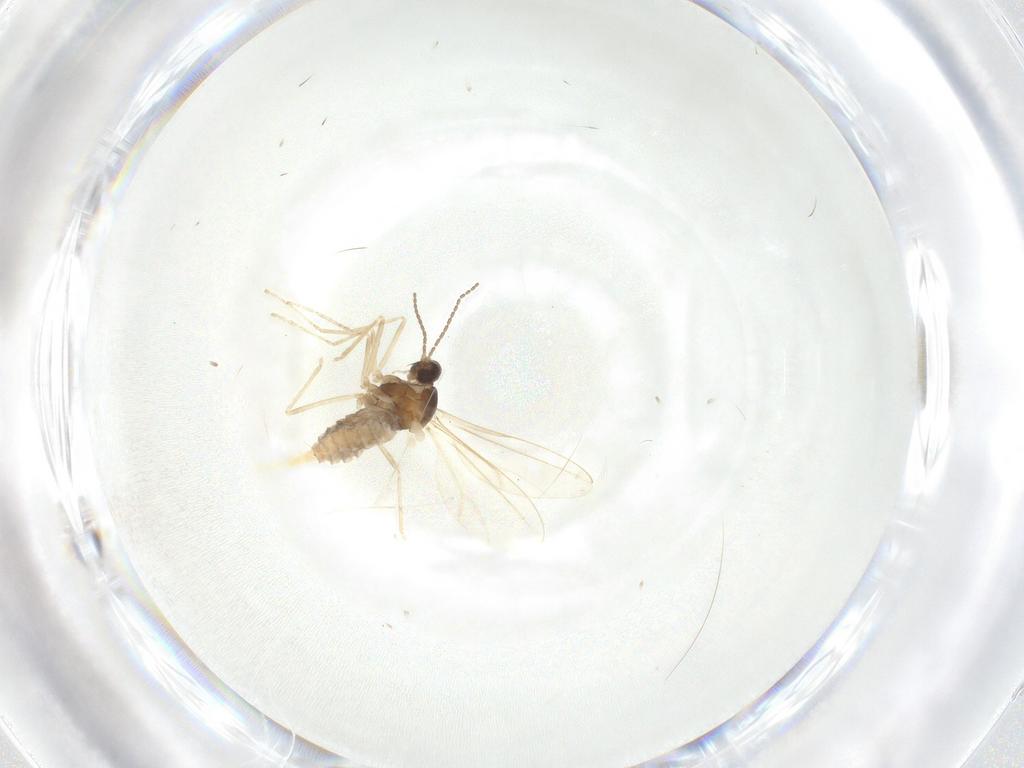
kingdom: Animalia
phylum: Arthropoda
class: Insecta
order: Diptera
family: Cecidomyiidae
